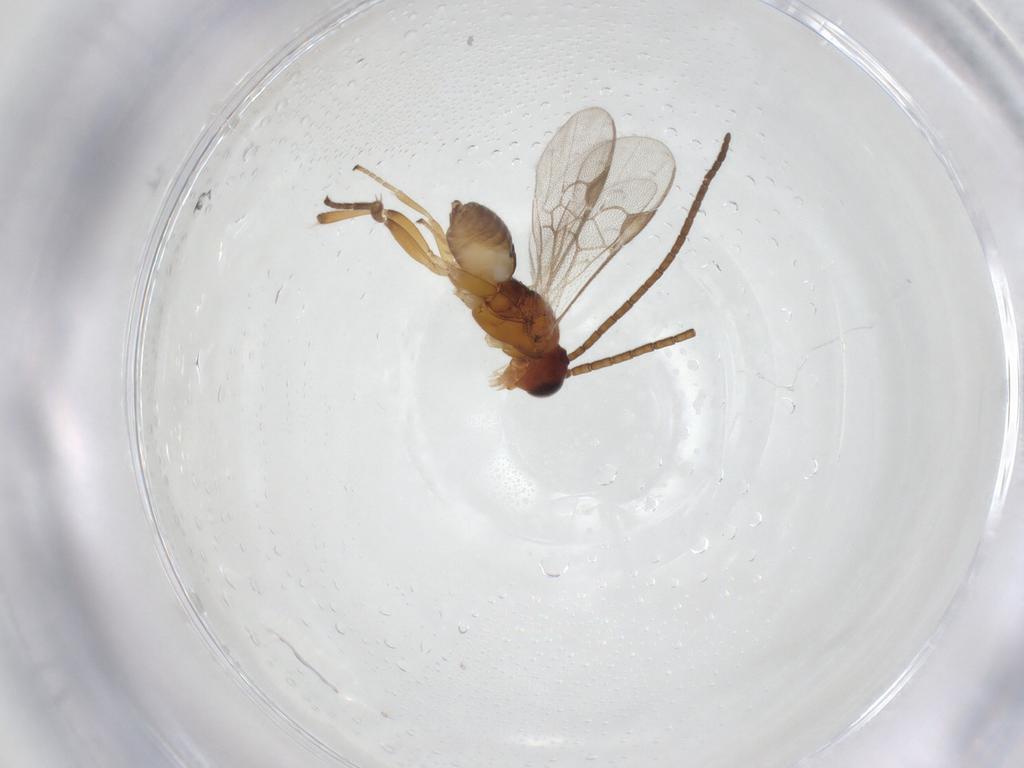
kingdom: Animalia
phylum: Arthropoda
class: Insecta
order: Hymenoptera
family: Braconidae
